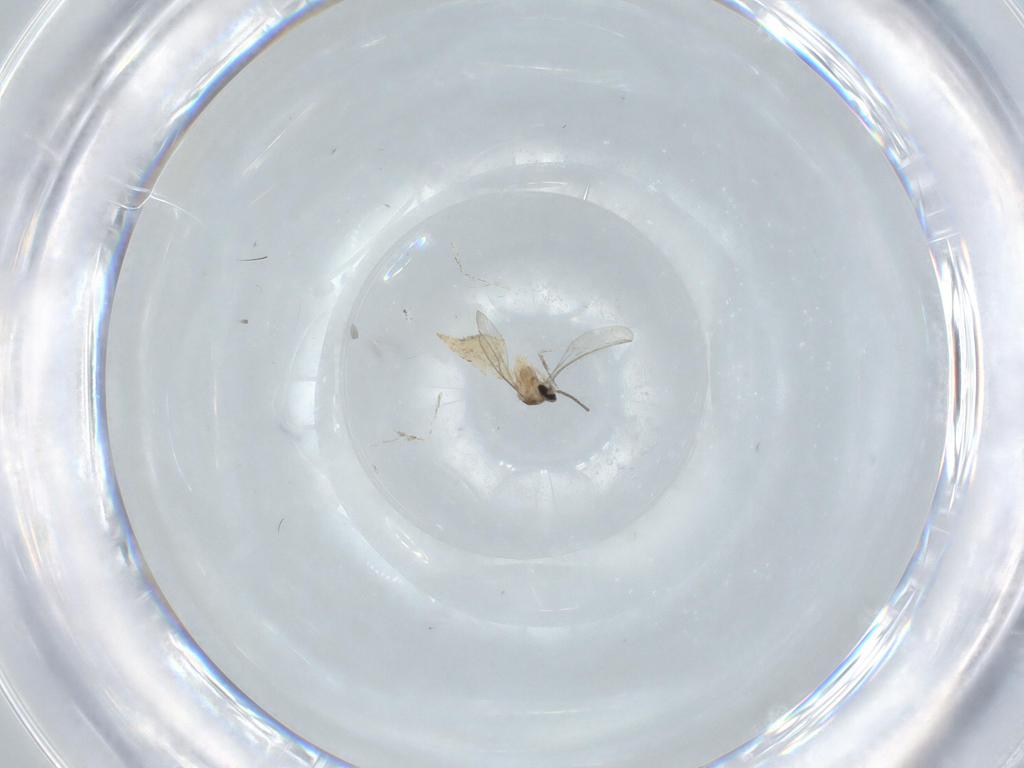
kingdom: Animalia
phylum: Arthropoda
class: Insecta
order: Diptera
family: Cecidomyiidae
